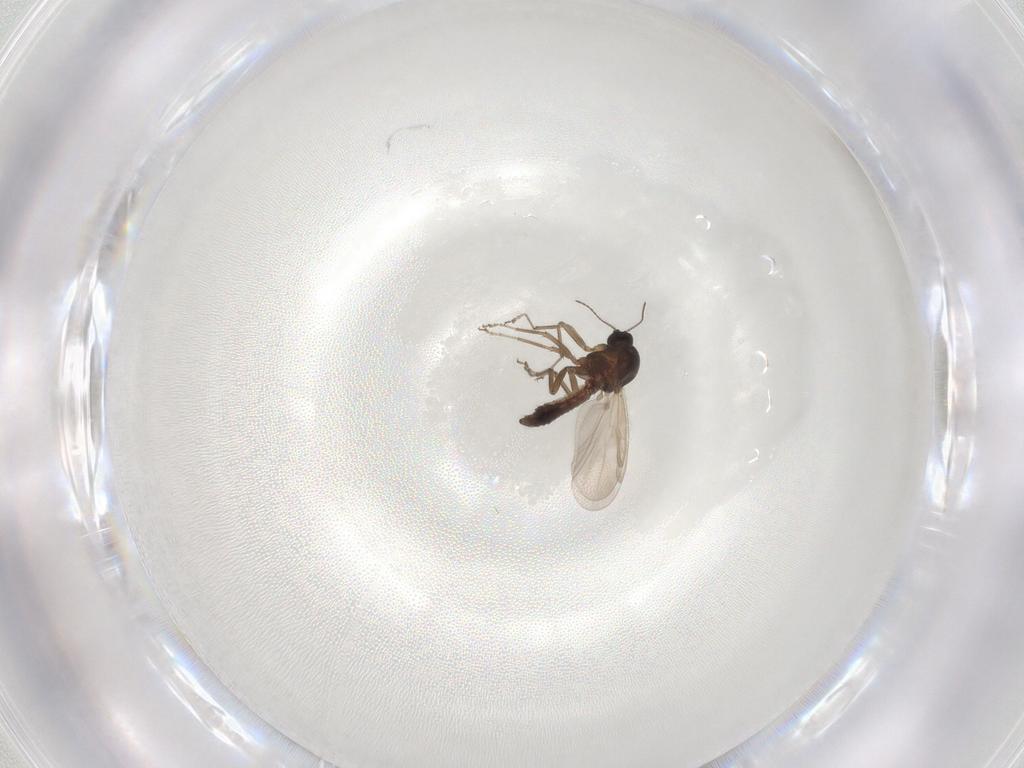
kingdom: Animalia
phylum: Arthropoda
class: Insecta
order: Diptera
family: Ceratopogonidae
